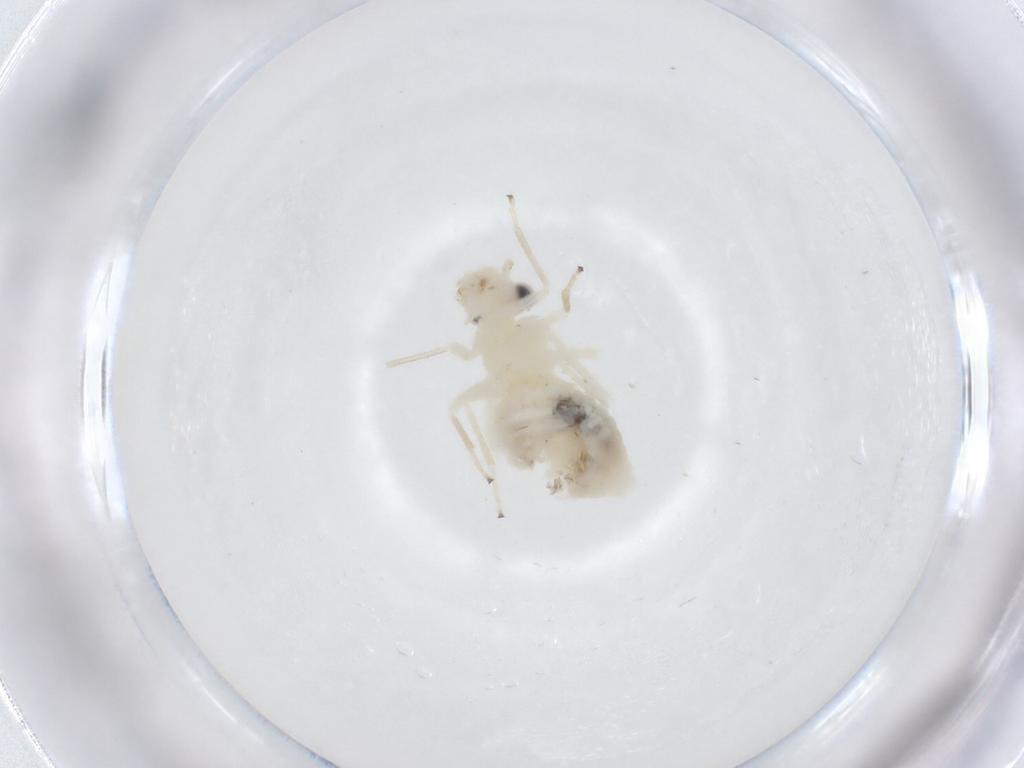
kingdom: Animalia
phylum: Arthropoda
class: Insecta
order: Psocodea
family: Caeciliusidae
